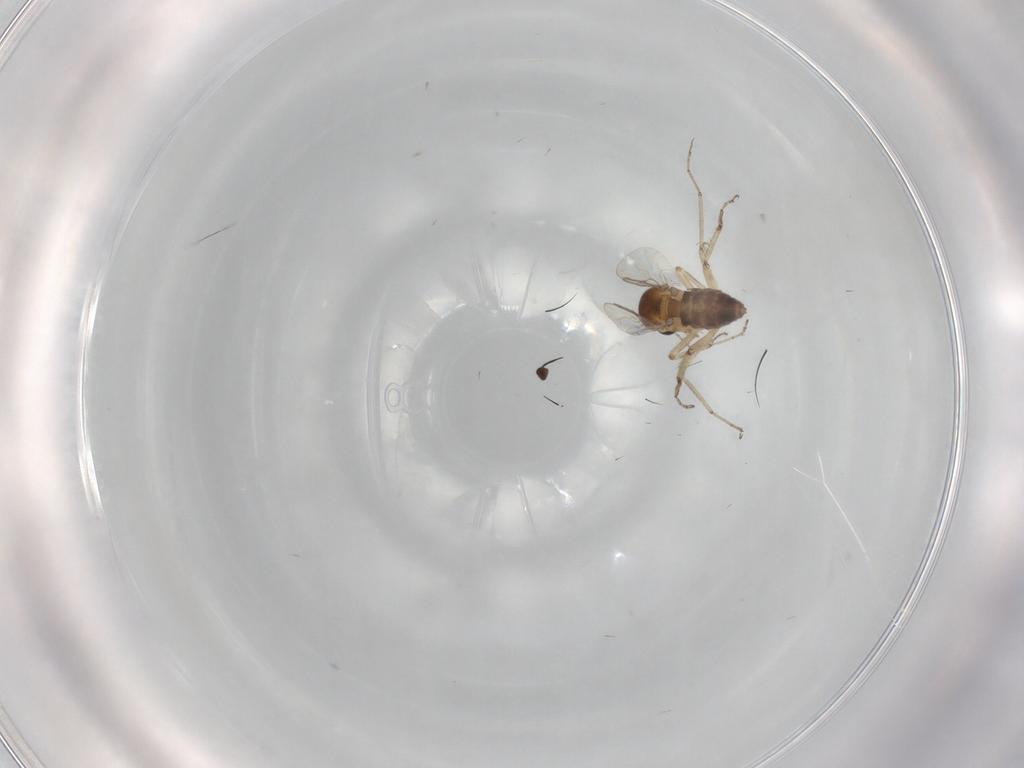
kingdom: Animalia
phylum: Arthropoda
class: Insecta
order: Diptera
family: Ceratopogonidae
